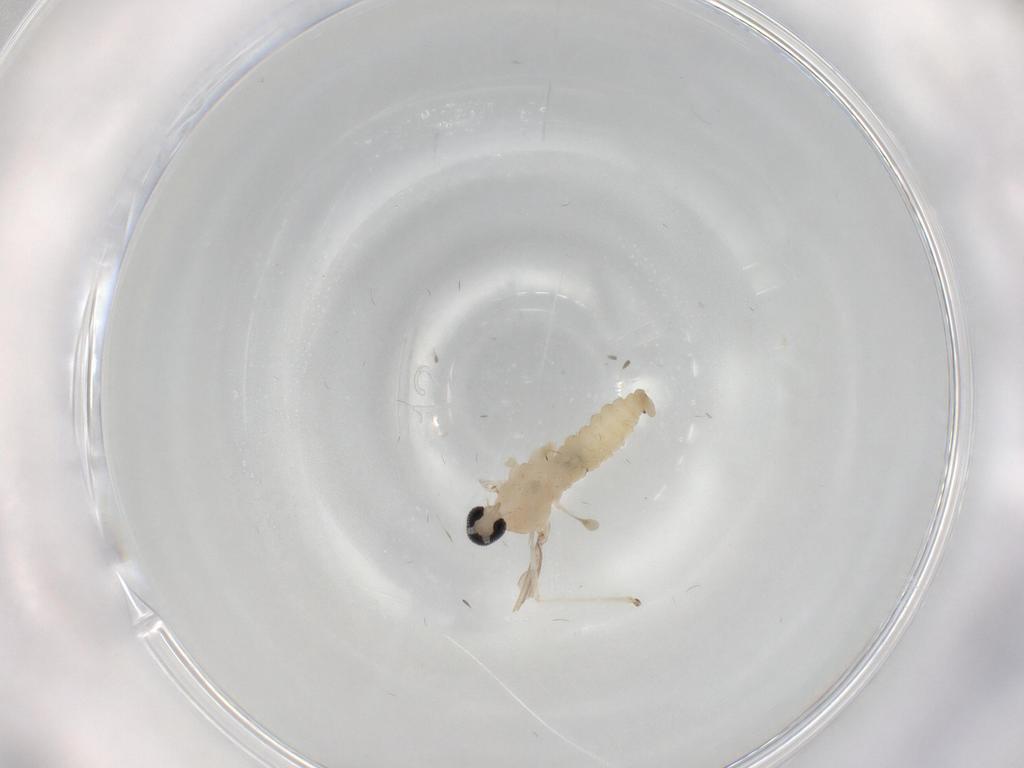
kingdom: Animalia
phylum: Arthropoda
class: Insecta
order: Diptera
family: Cecidomyiidae
